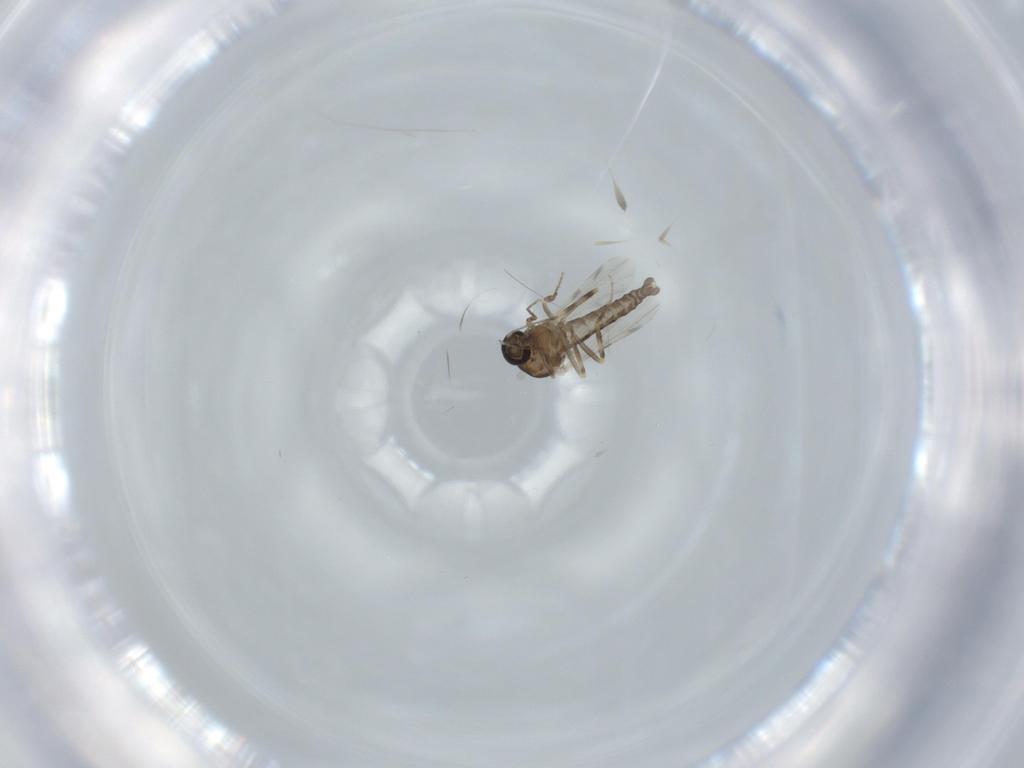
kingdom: Animalia
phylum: Arthropoda
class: Insecta
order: Diptera
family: Ceratopogonidae
